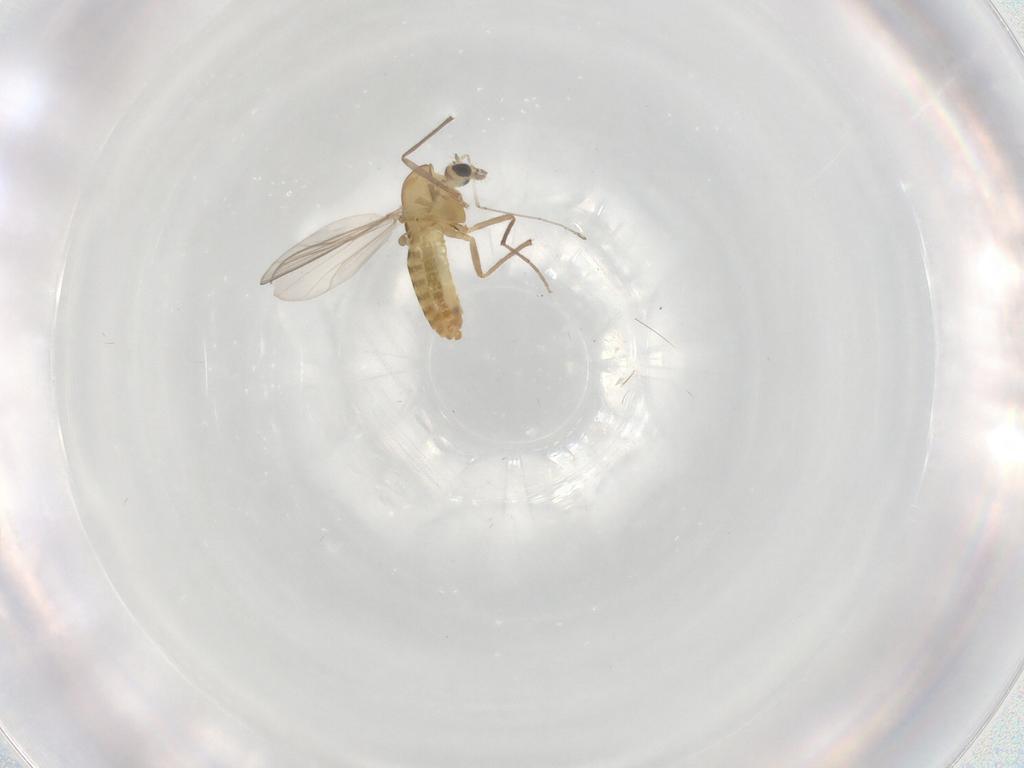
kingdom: Animalia
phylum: Arthropoda
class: Insecta
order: Diptera
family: Chironomidae
